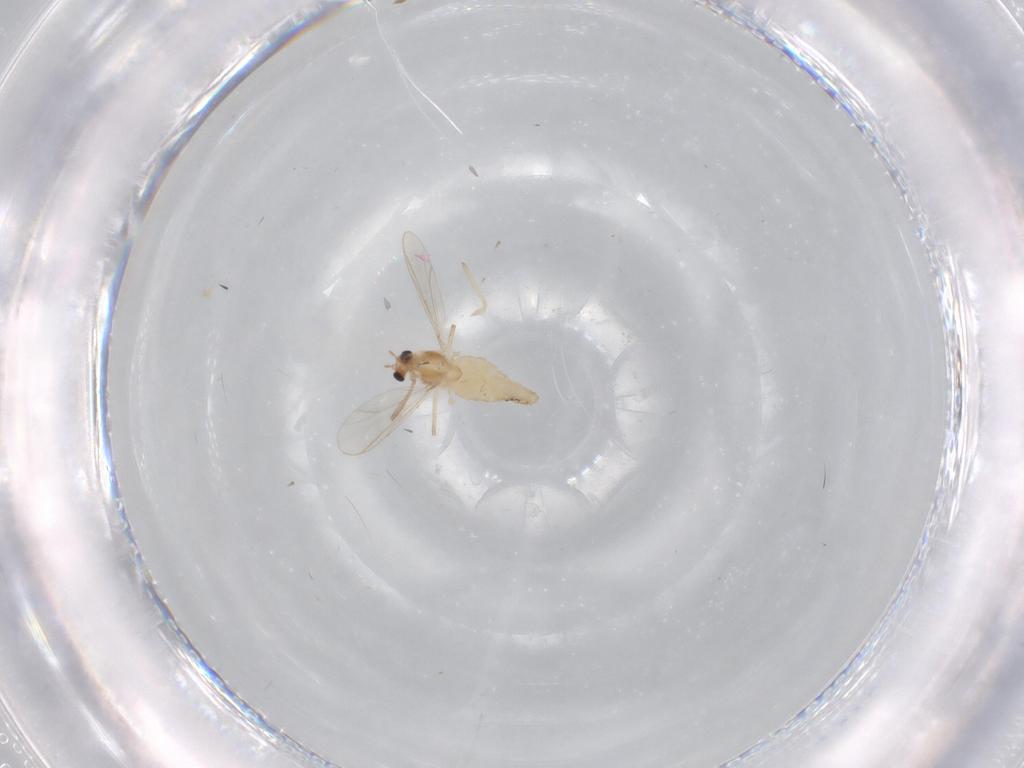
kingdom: Animalia
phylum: Arthropoda
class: Insecta
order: Diptera
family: Chironomidae
